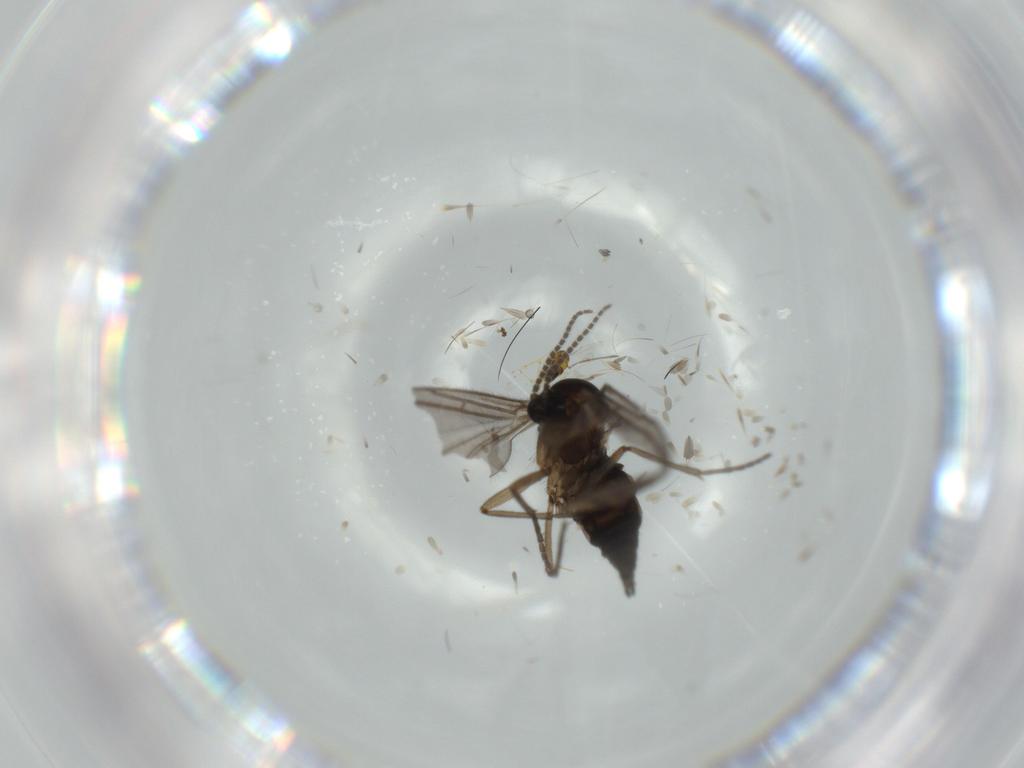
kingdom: Animalia
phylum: Arthropoda
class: Insecta
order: Diptera
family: Sciaridae
